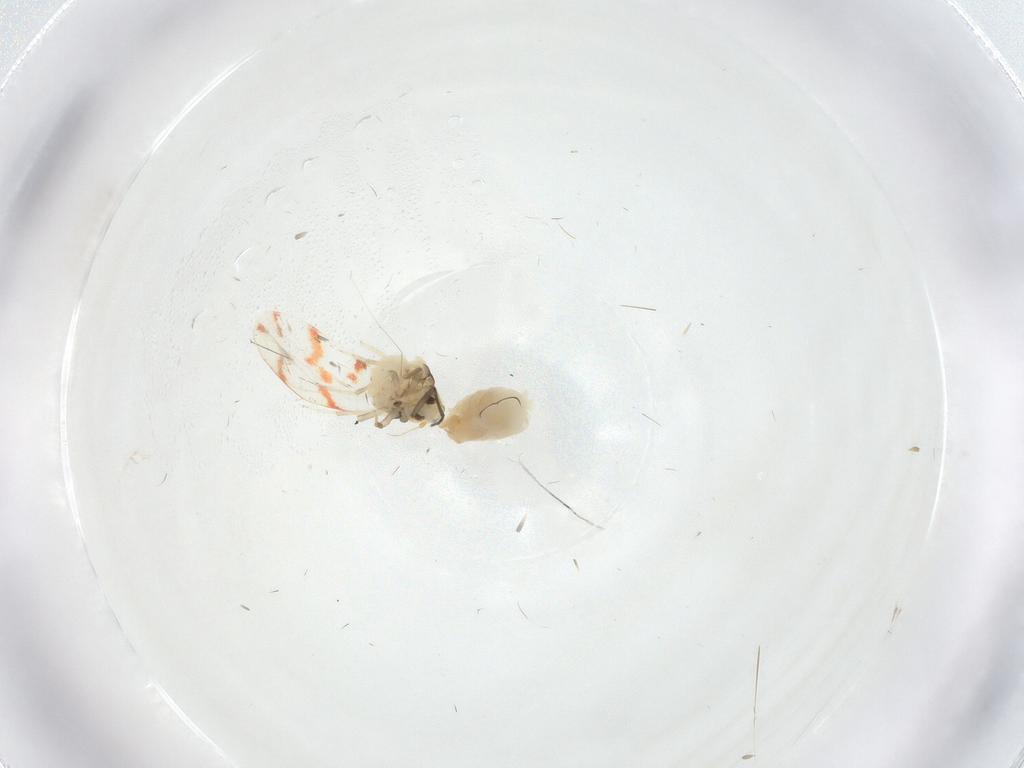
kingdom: Animalia
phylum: Arthropoda
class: Insecta
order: Hemiptera
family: Aleyrodidae
